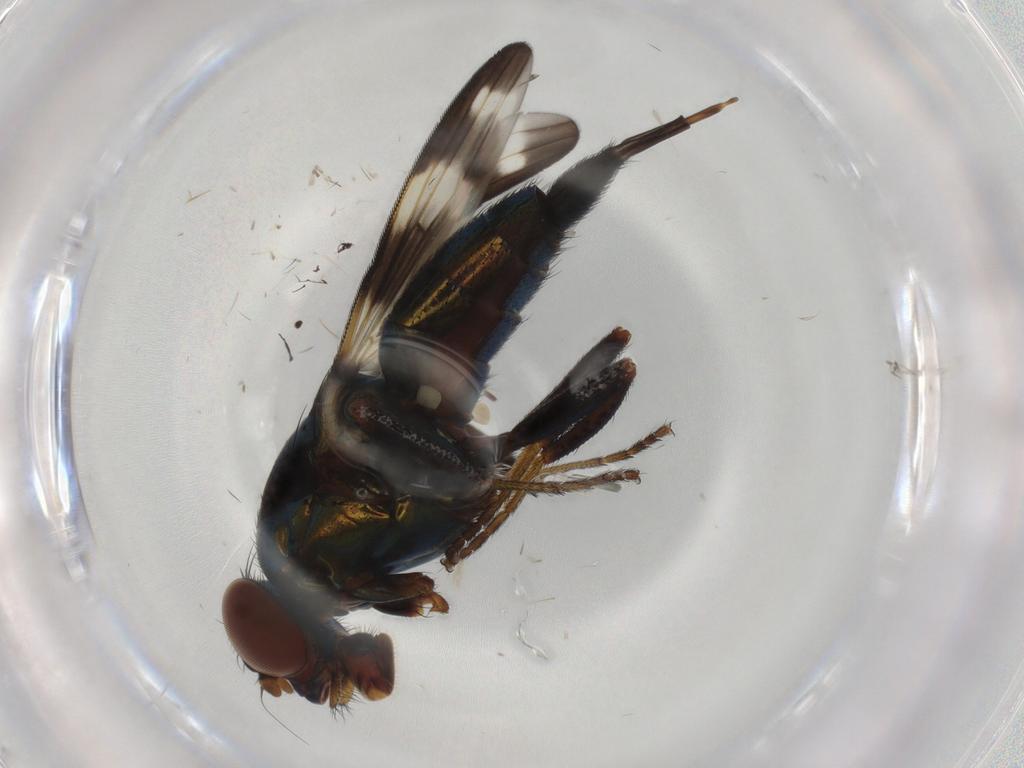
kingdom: Animalia
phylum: Arthropoda
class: Insecta
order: Diptera
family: Ulidiidae
